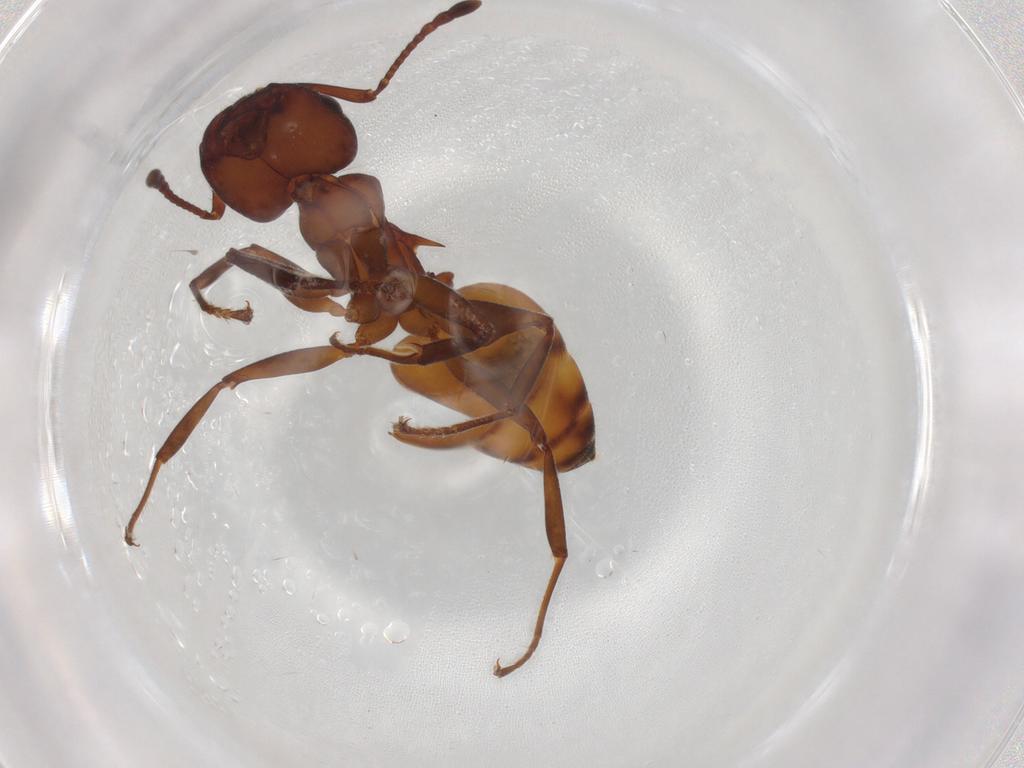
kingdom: Animalia
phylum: Arthropoda
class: Insecta
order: Hymenoptera
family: Formicidae
